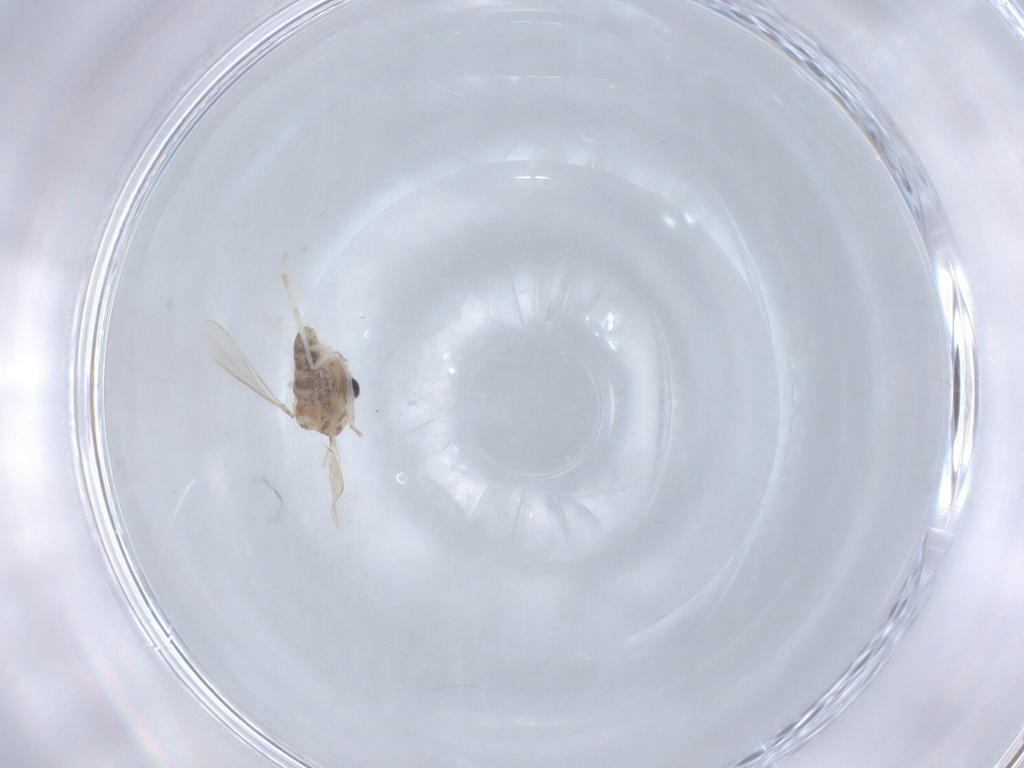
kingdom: Animalia
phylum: Arthropoda
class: Insecta
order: Diptera
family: Chironomidae
